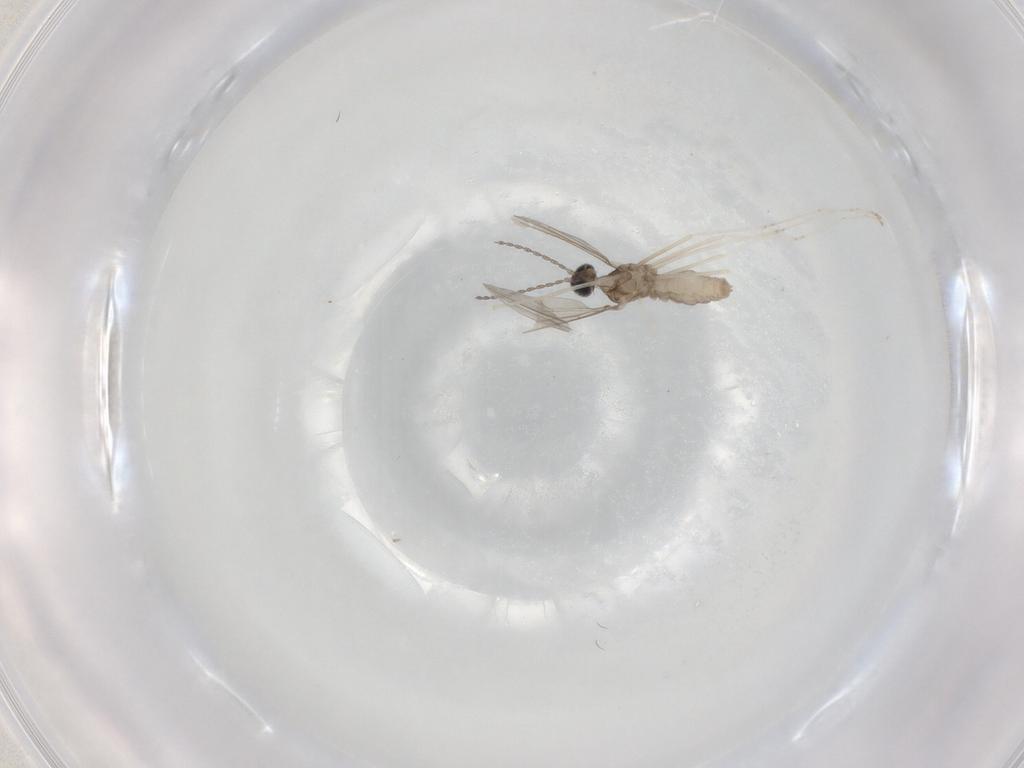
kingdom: Animalia
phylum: Arthropoda
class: Insecta
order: Diptera
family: Cecidomyiidae
